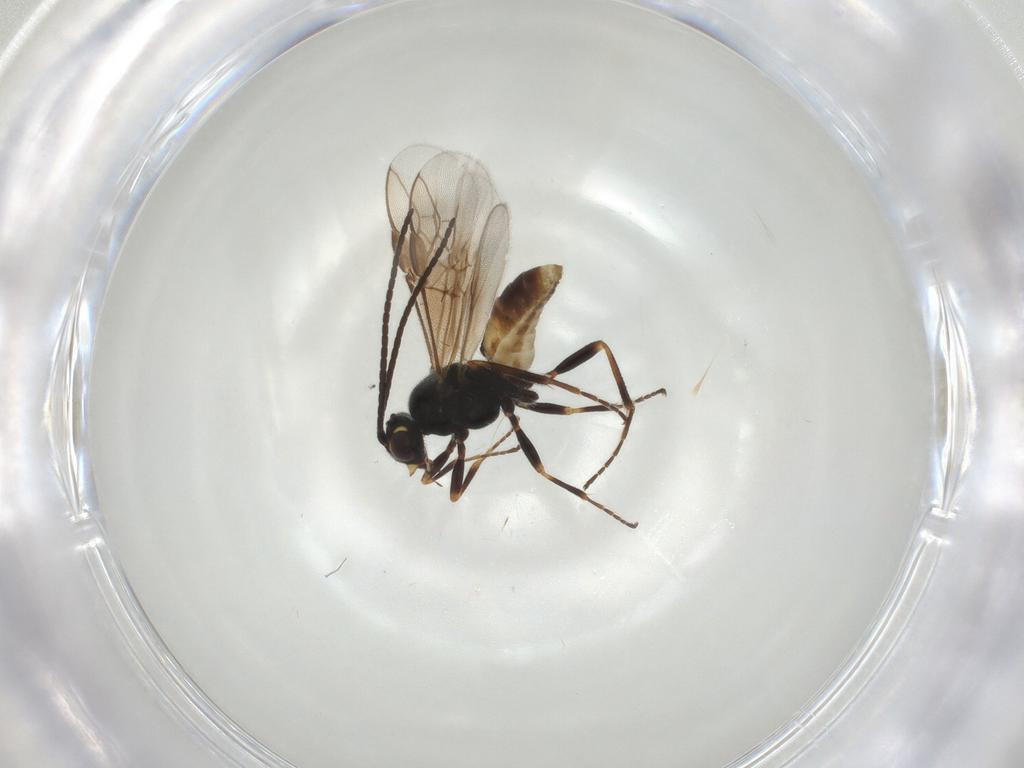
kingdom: Animalia
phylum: Arthropoda
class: Insecta
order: Hymenoptera
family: Braconidae
